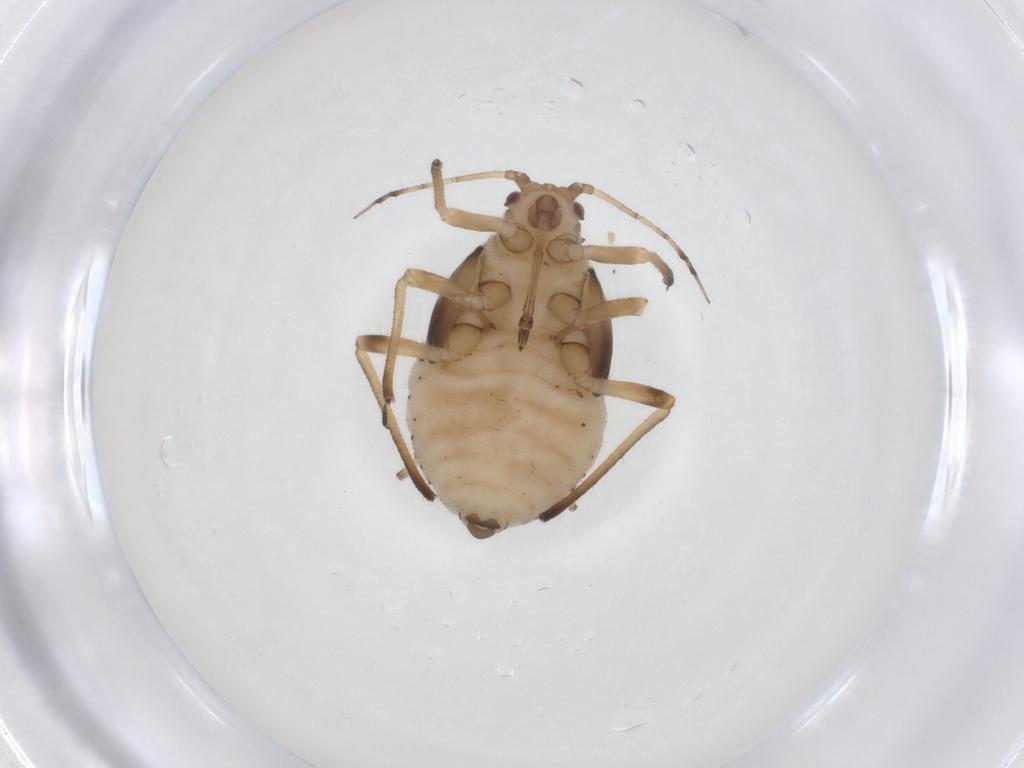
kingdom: Animalia
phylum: Arthropoda
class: Insecta
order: Hemiptera
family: Aphididae
